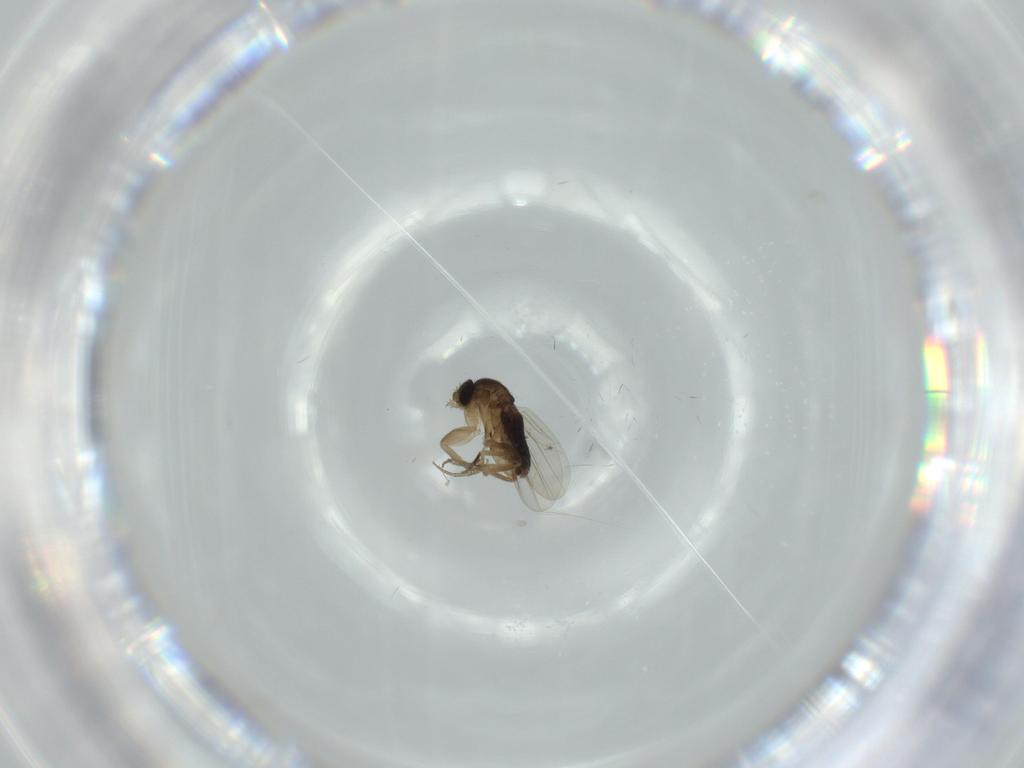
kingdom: Animalia
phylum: Arthropoda
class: Insecta
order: Diptera
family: Phoridae
